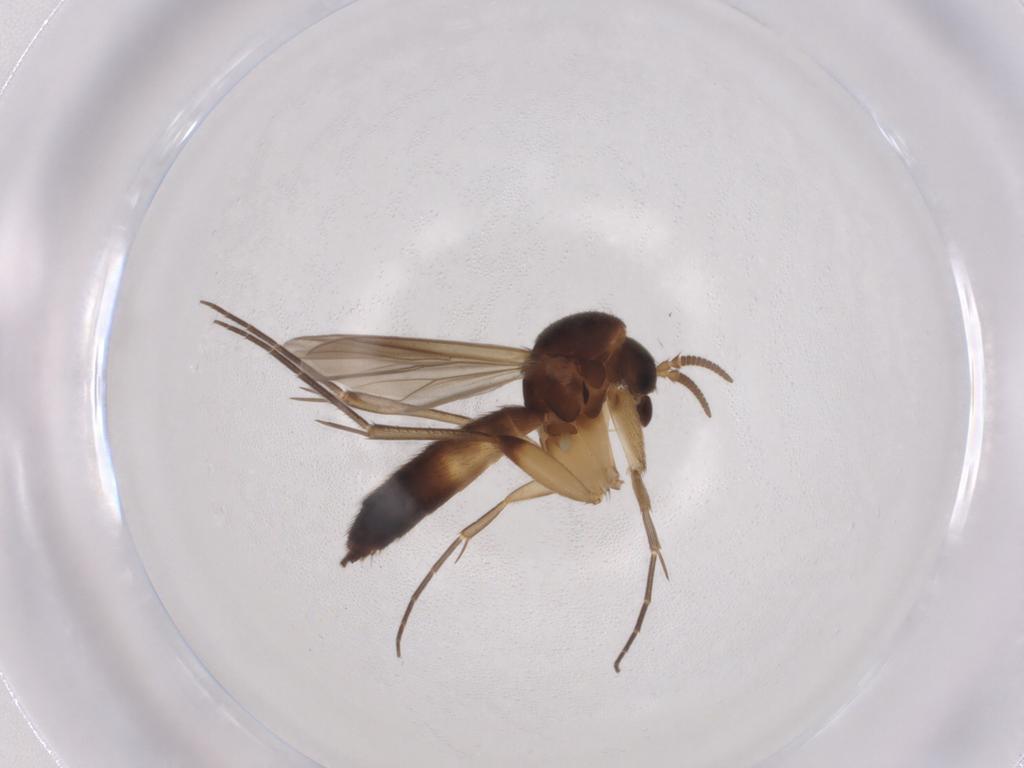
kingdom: Animalia
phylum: Arthropoda
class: Insecta
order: Diptera
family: Mycetophilidae
